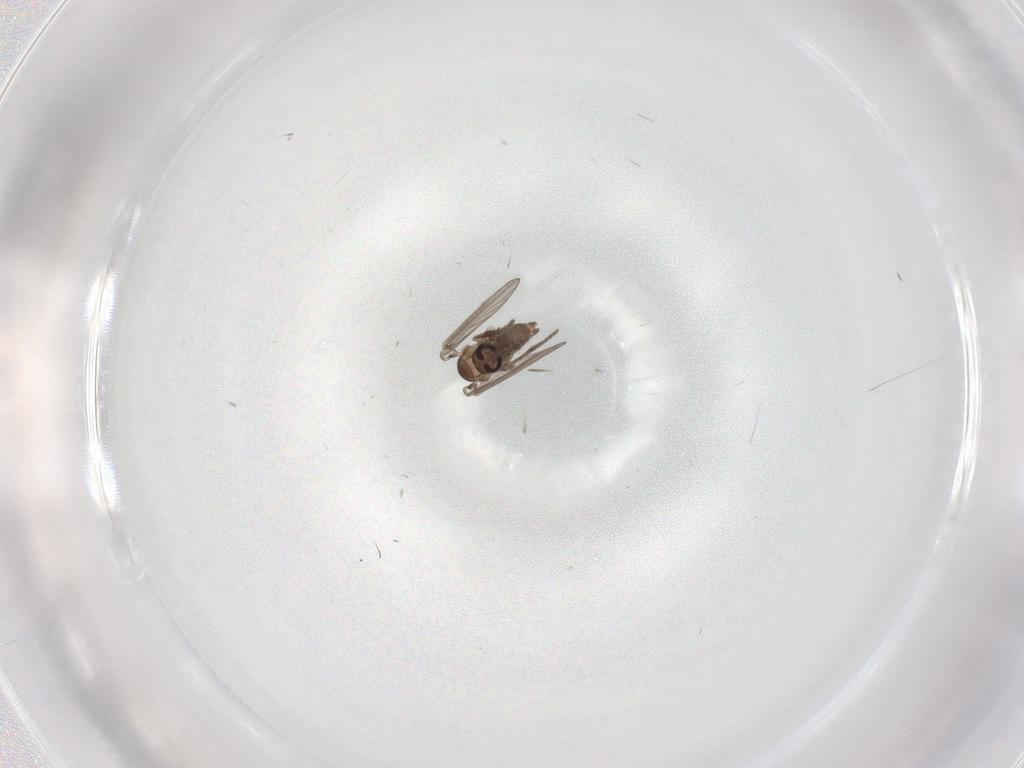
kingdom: Animalia
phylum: Arthropoda
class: Insecta
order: Diptera
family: Psychodidae
